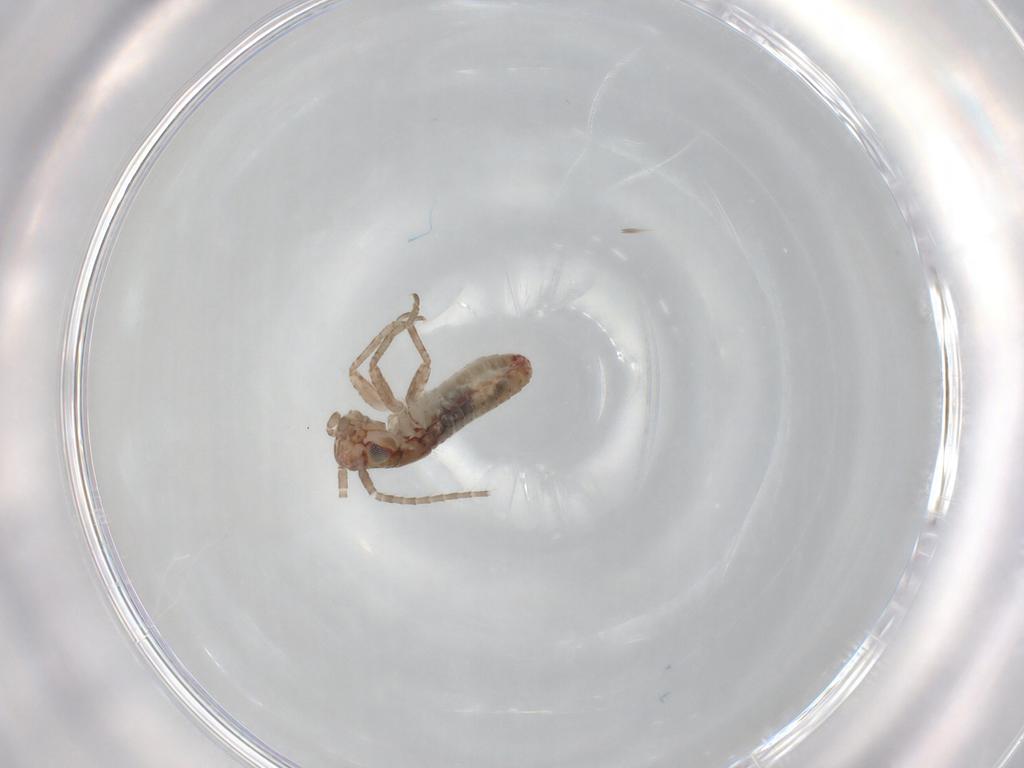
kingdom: Animalia
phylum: Arthropoda
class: Insecta
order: Orthoptera
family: Mogoplistidae
